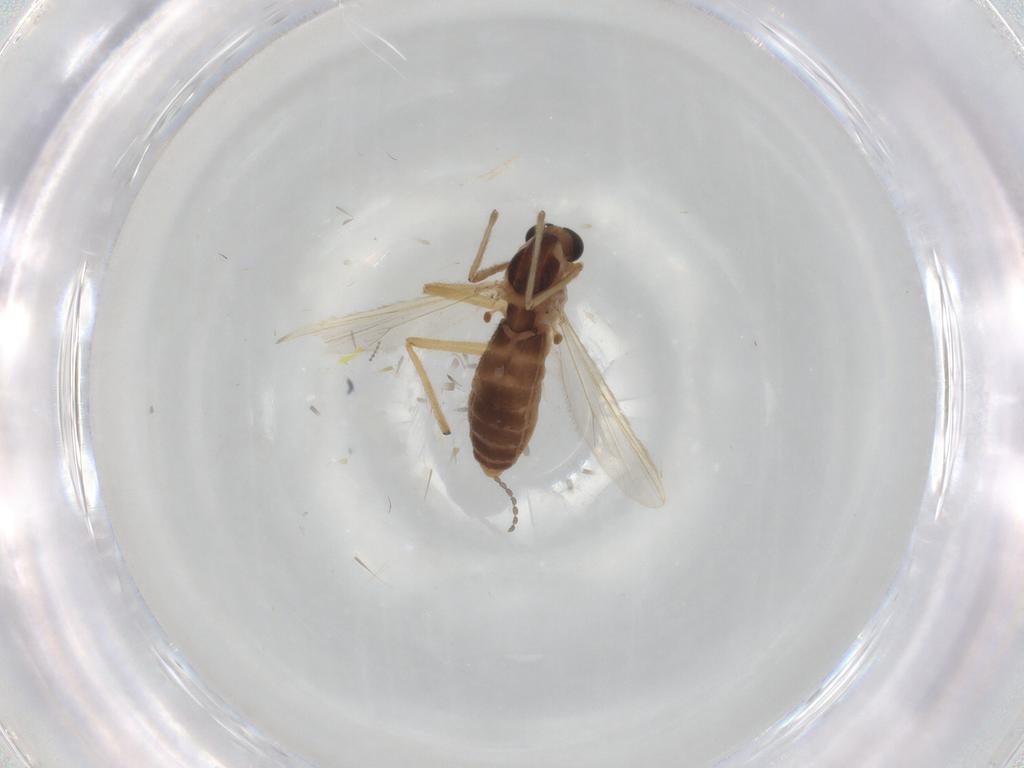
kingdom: Animalia
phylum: Arthropoda
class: Insecta
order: Diptera
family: Chironomidae
